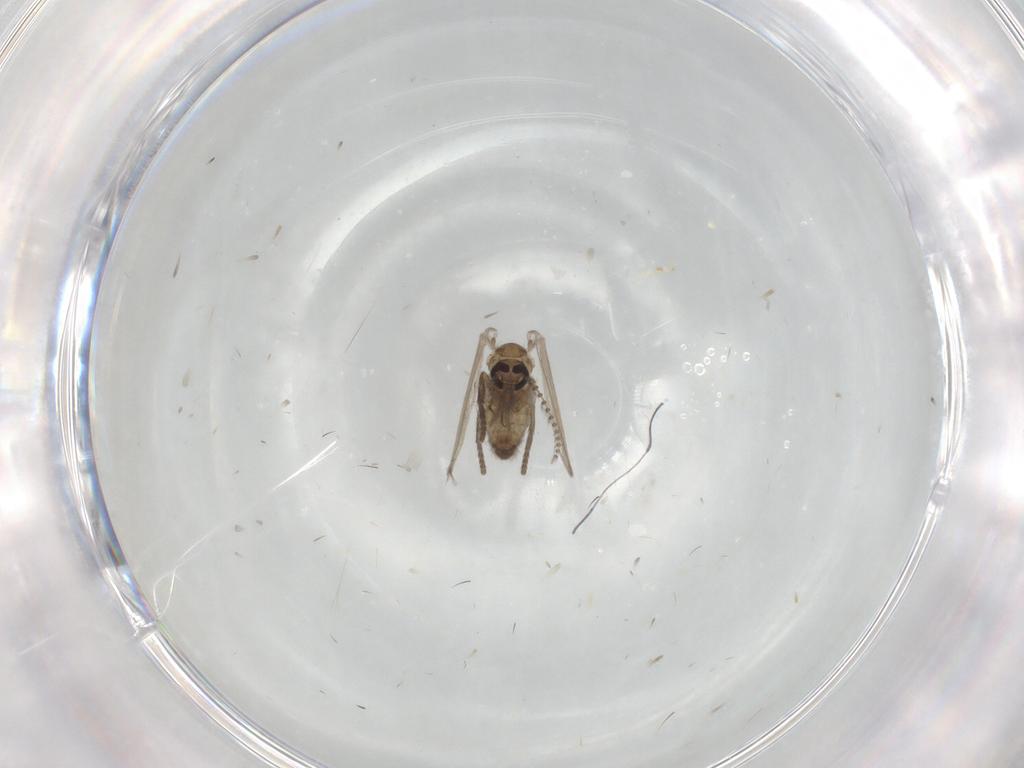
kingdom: Animalia
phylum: Arthropoda
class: Insecta
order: Diptera
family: Psychodidae
